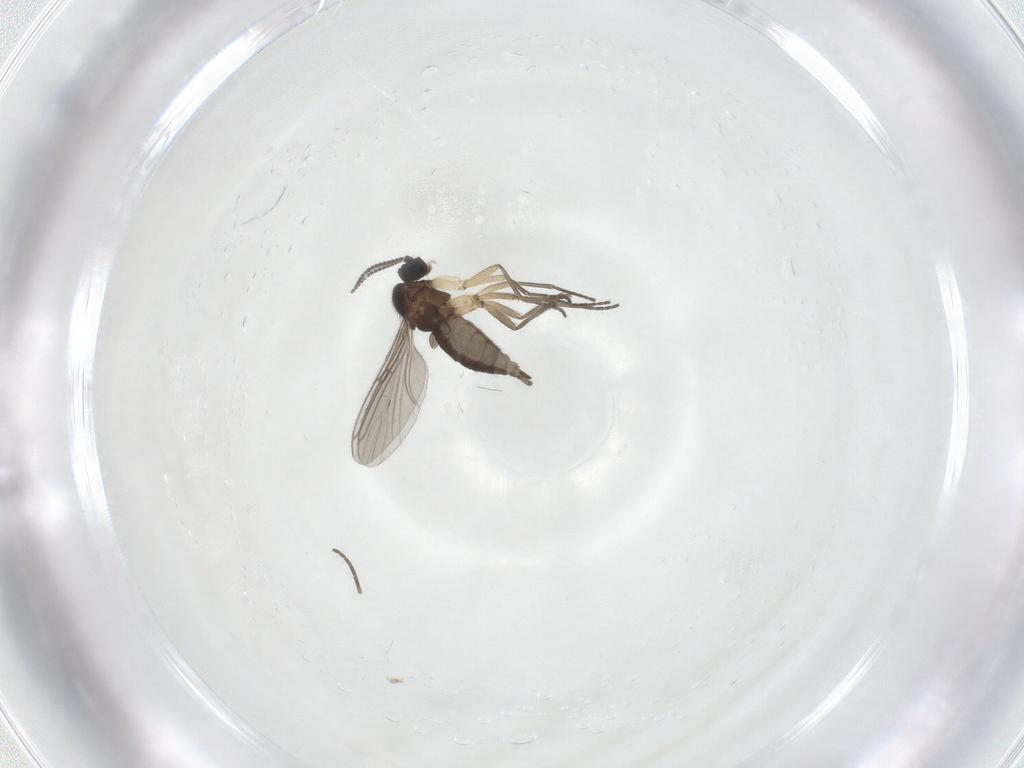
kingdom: Animalia
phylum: Arthropoda
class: Insecta
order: Diptera
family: Sciaridae
